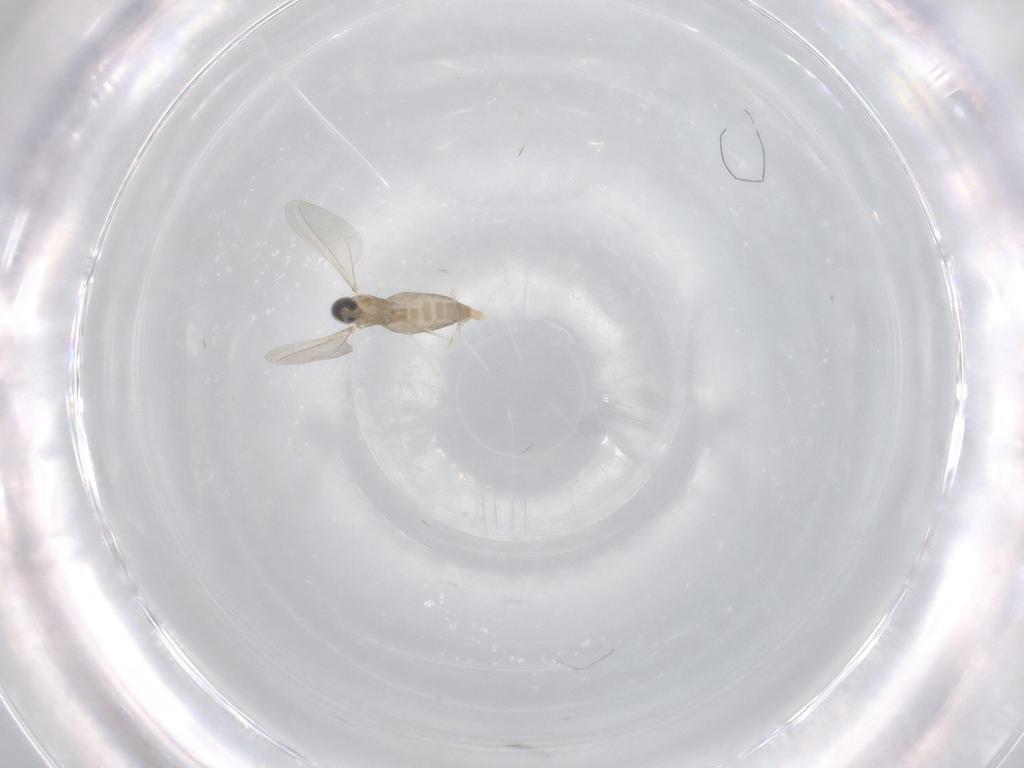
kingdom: Animalia
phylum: Arthropoda
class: Insecta
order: Diptera
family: Cecidomyiidae
